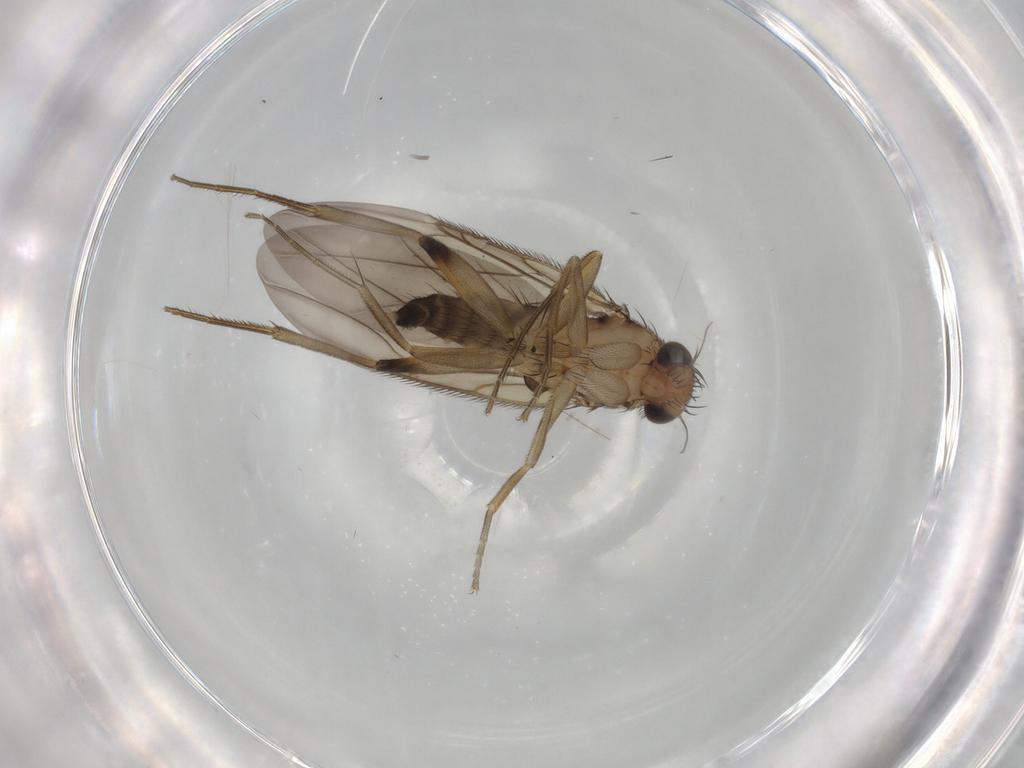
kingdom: Animalia
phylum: Arthropoda
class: Insecta
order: Diptera
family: Phoridae
